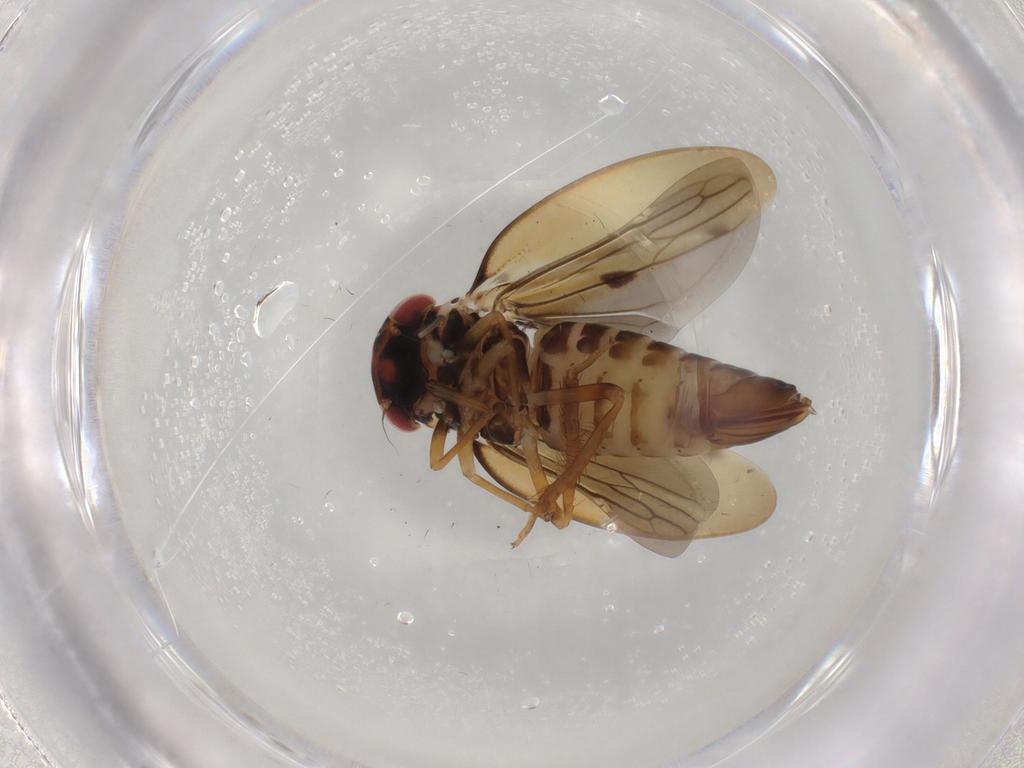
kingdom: Animalia
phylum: Arthropoda
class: Insecta
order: Hemiptera
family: Cicadellidae
